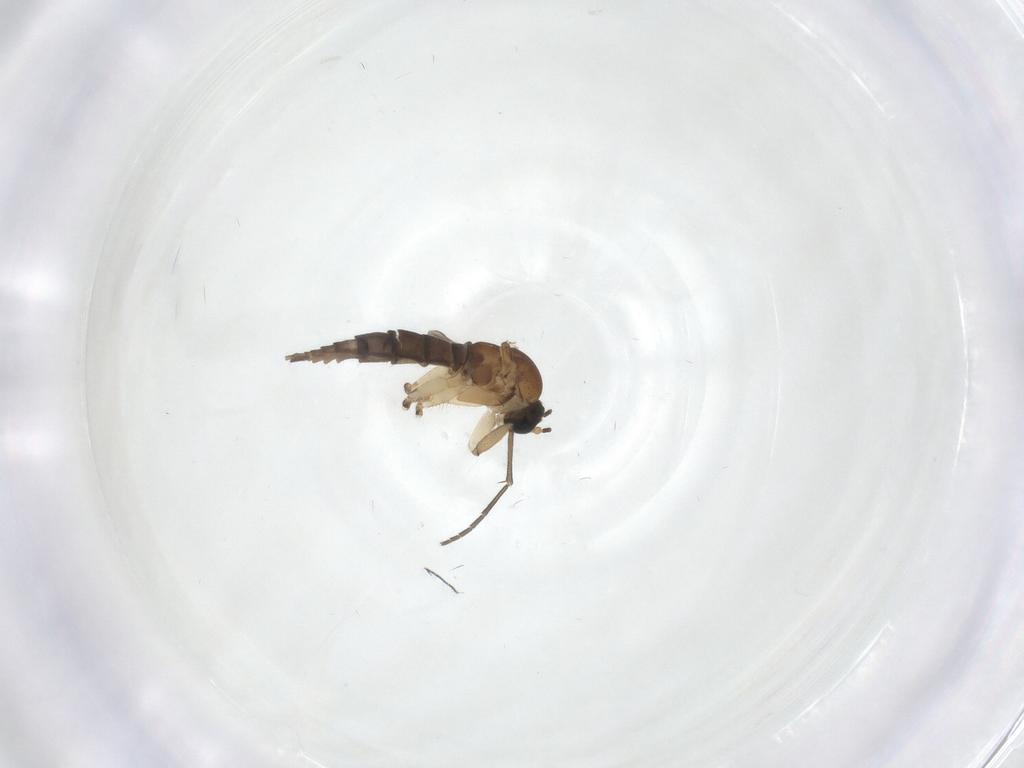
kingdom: Animalia
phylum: Arthropoda
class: Insecta
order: Diptera
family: Sciaridae
